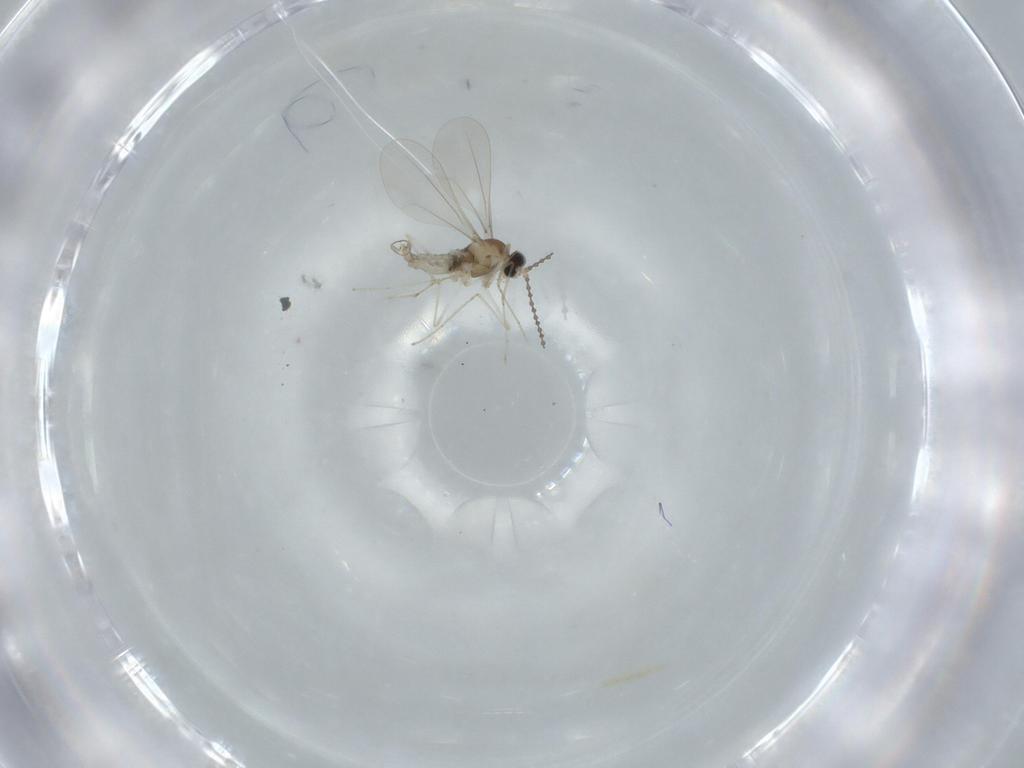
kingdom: Animalia
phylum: Arthropoda
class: Insecta
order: Diptera
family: Cecidomyiidae
